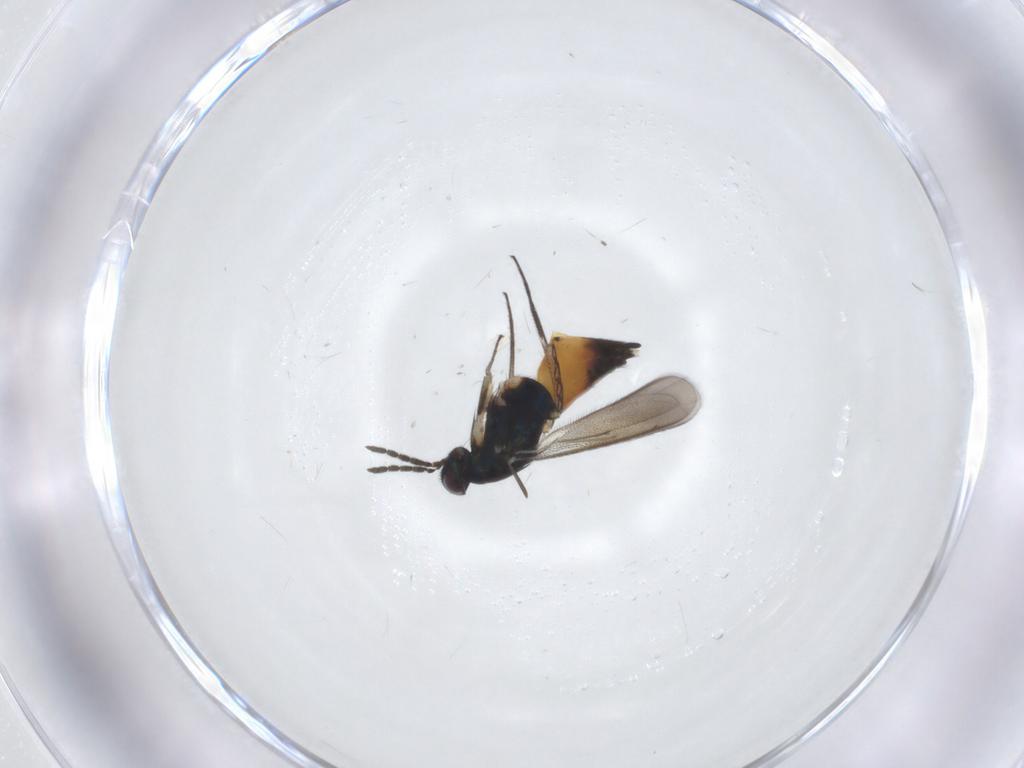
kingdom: Animalia
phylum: Arthropoda
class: Insecta
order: Hymenoptera
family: Eulophidae
